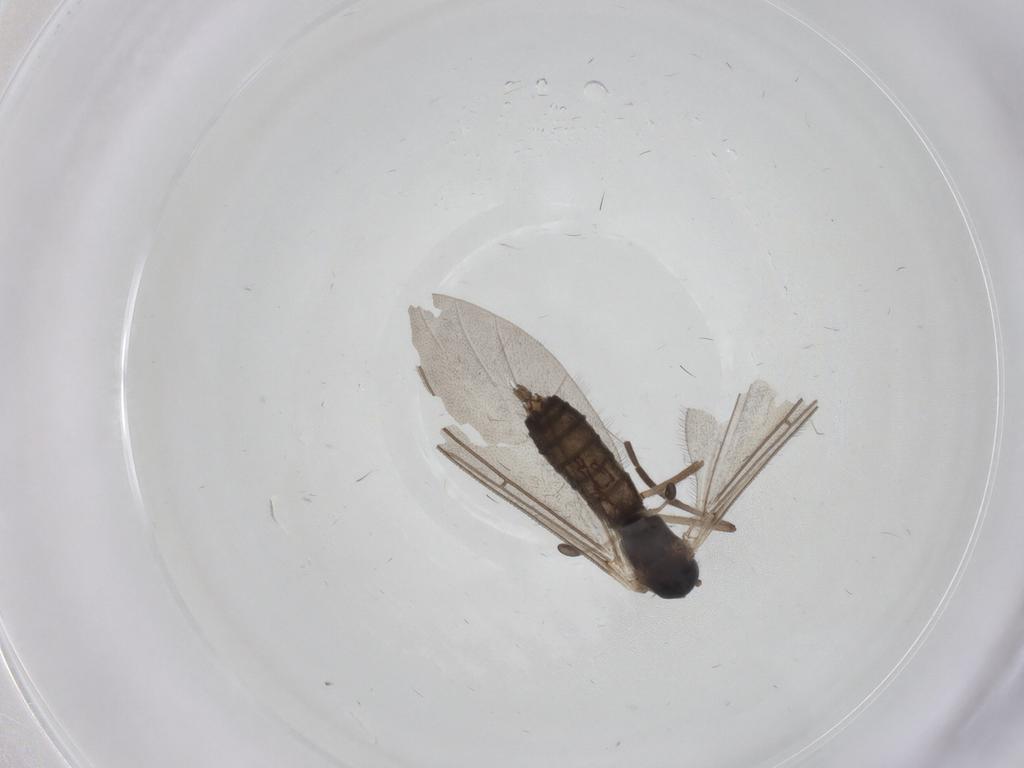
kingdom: Animalia
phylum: Arthropoda
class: Insecta
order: Diptera
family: Mycetophilidae
